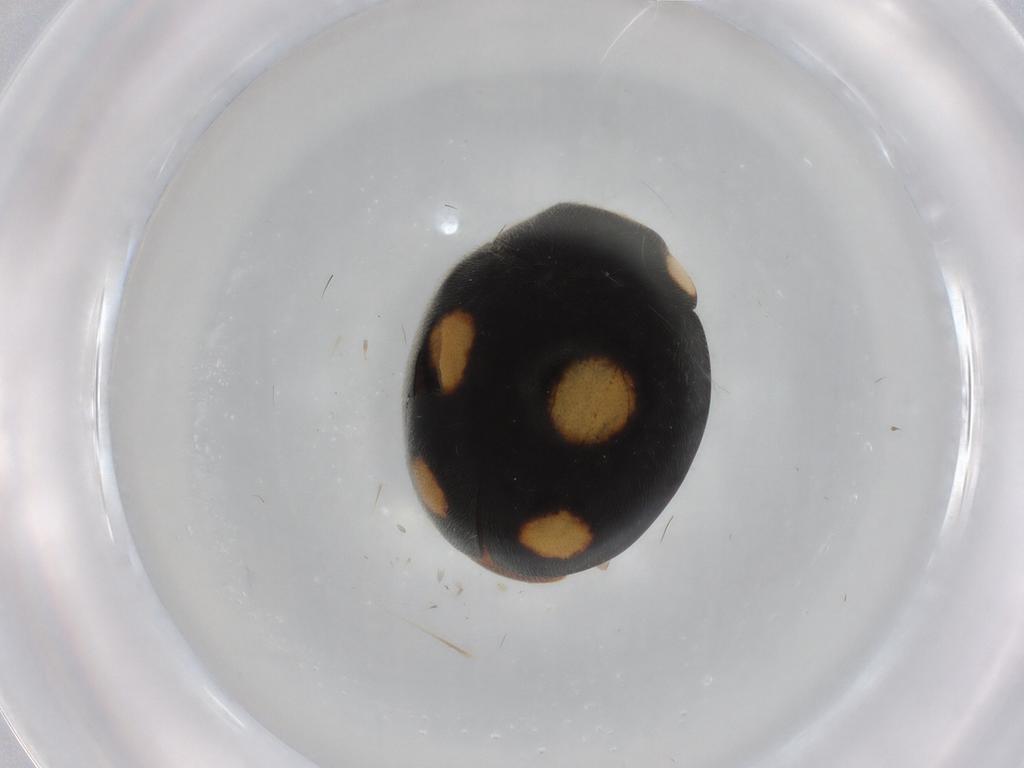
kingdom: Animalia
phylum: Arthropoda
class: Insecta
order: Coleoptera
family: Coccinellidae
